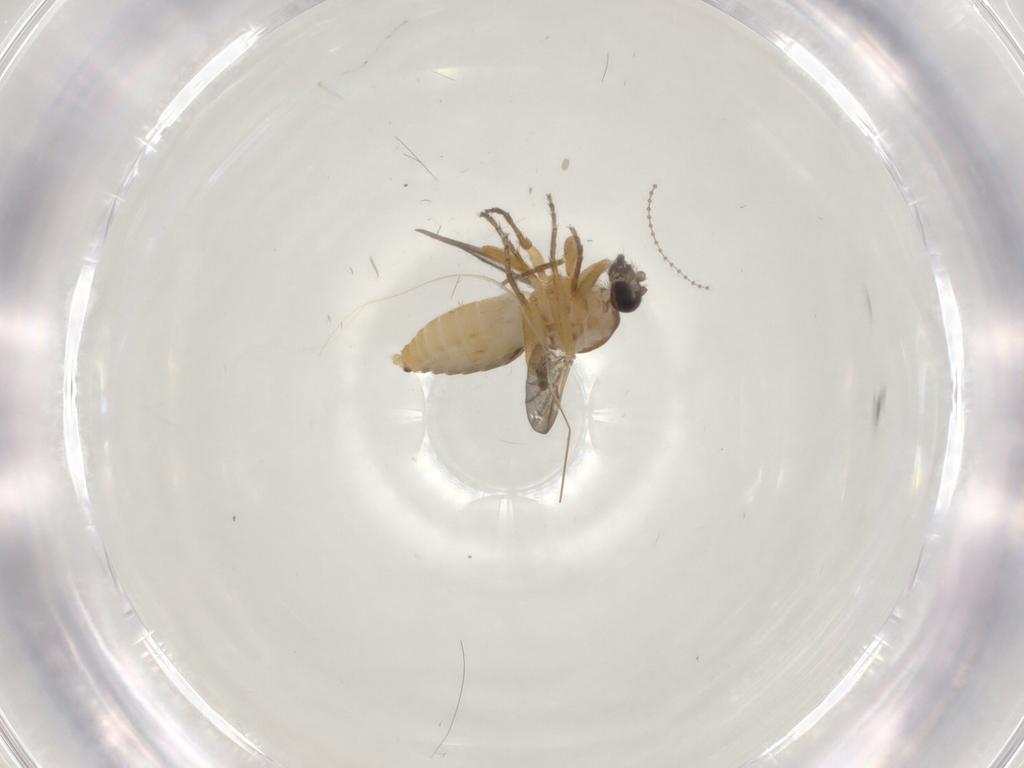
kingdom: Animalia
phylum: Arthropoda
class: Insecta
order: Diptera
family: Ceratopogonidae
